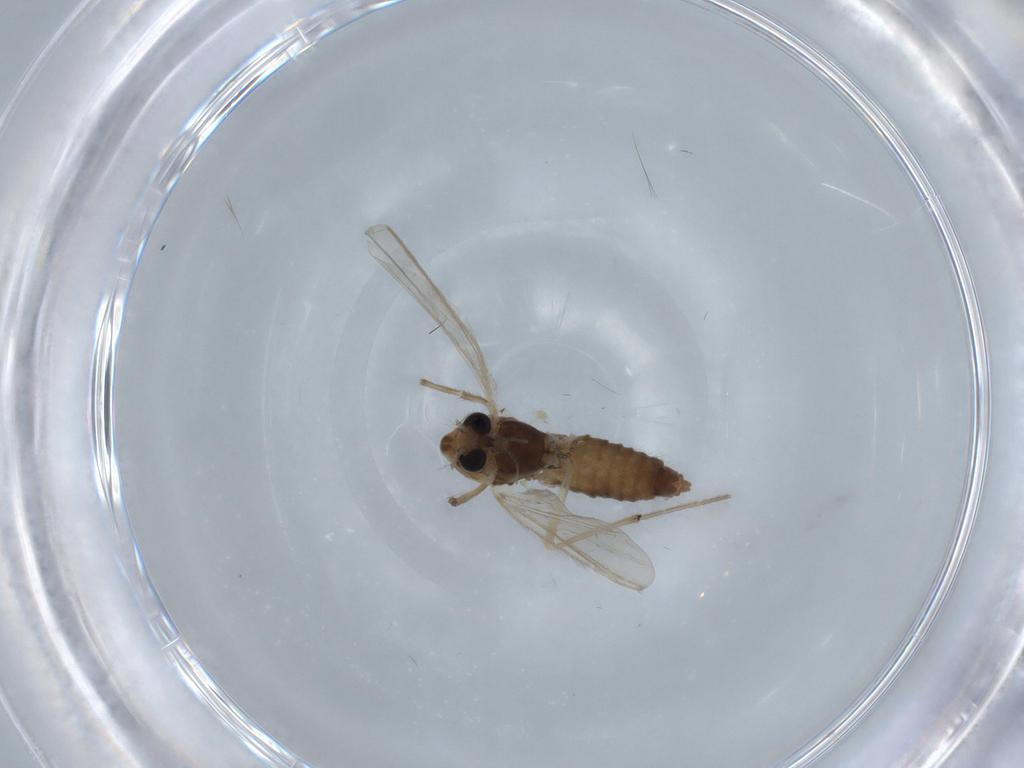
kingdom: Animalia
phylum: Arthropoda
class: Insecta
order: Diptera
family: Chironomidae
